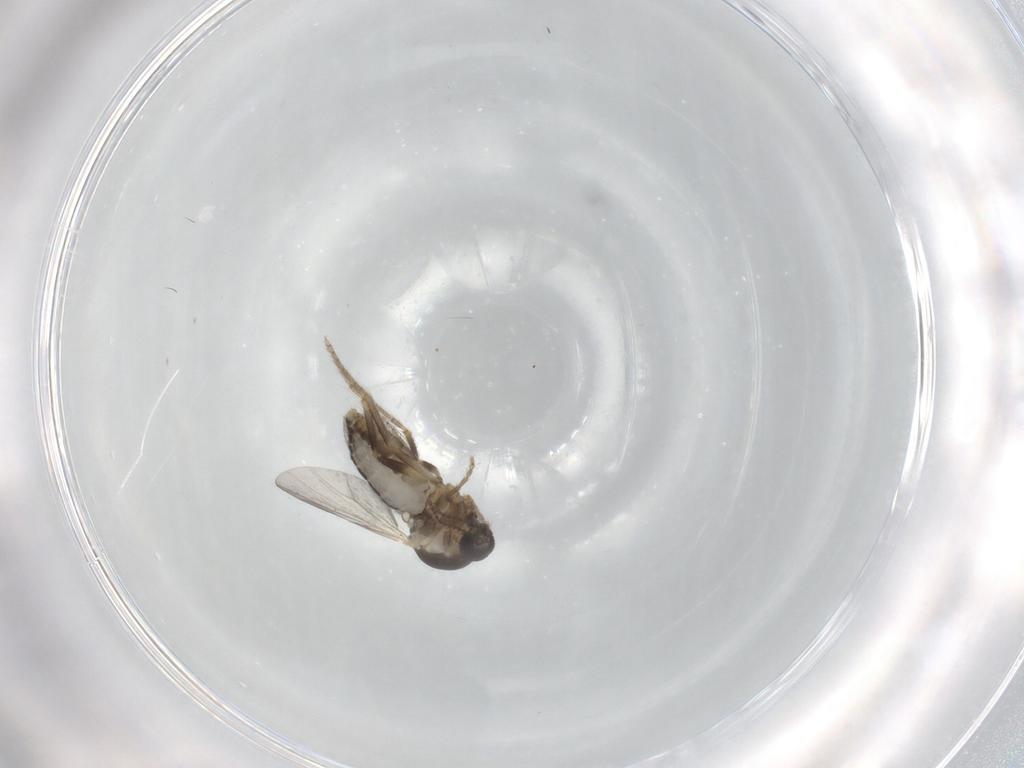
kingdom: Animalia
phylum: Arthropoda
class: Insecta
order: Diptera
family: Ceratopogonidae
